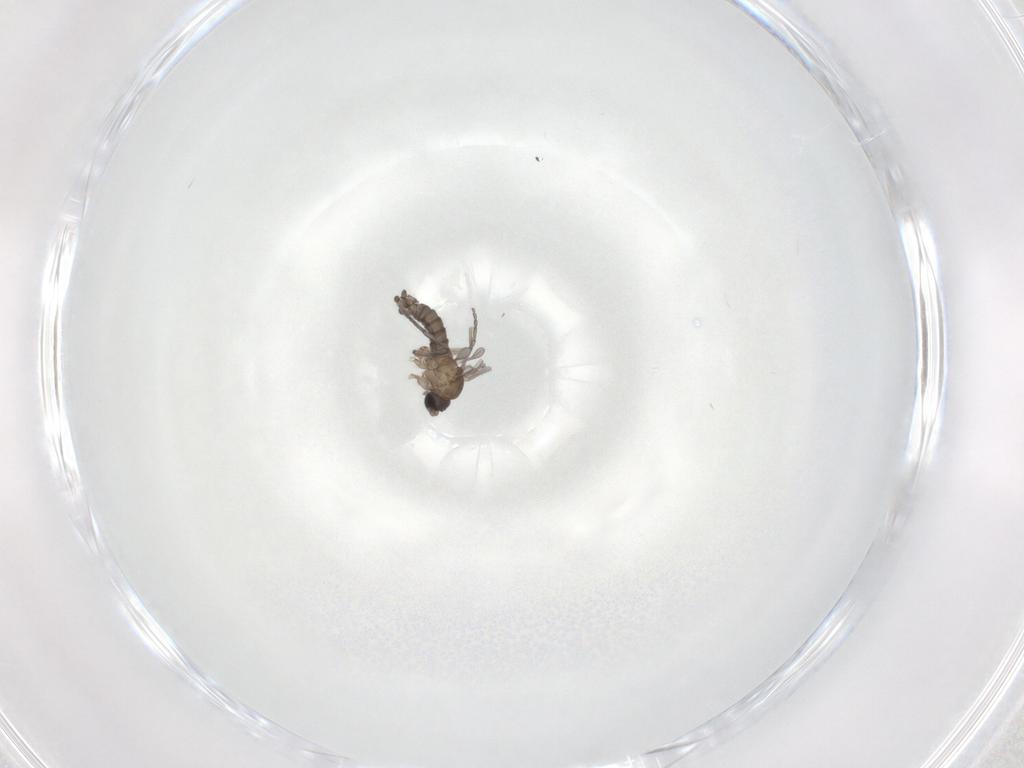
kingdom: Animalia
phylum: Arthropoda
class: Insecta
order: Diptera
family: Sciaridae
